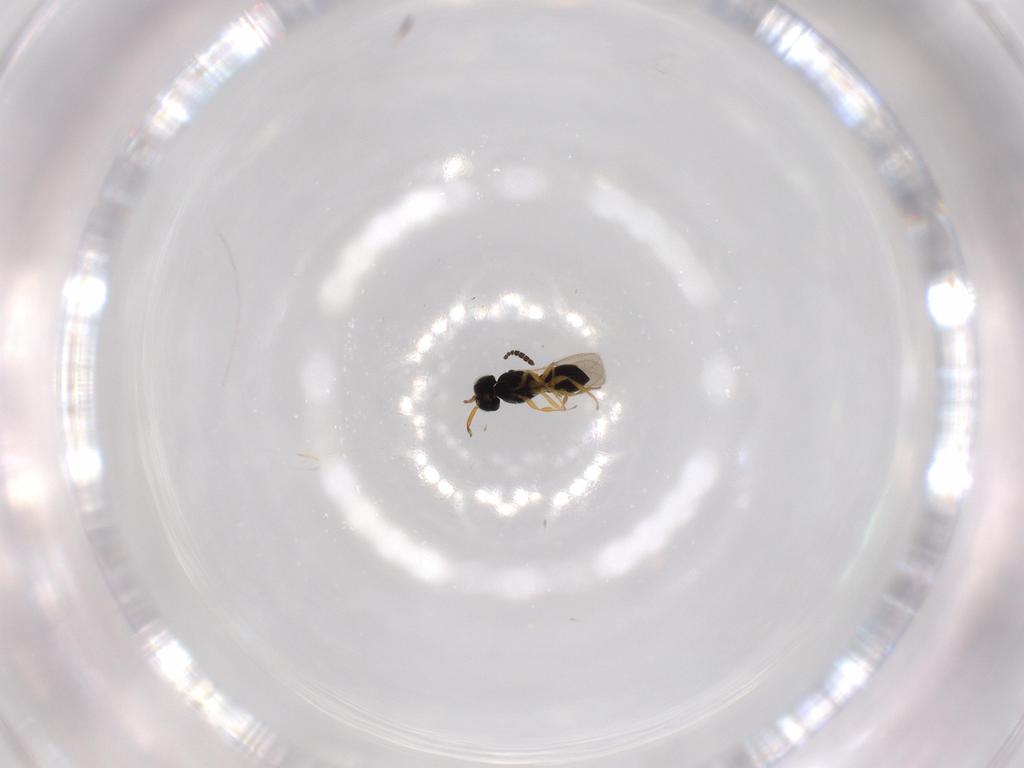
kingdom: Animalia
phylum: Arthropoda
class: Insecta
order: Hymenoptera
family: Scelionidae
